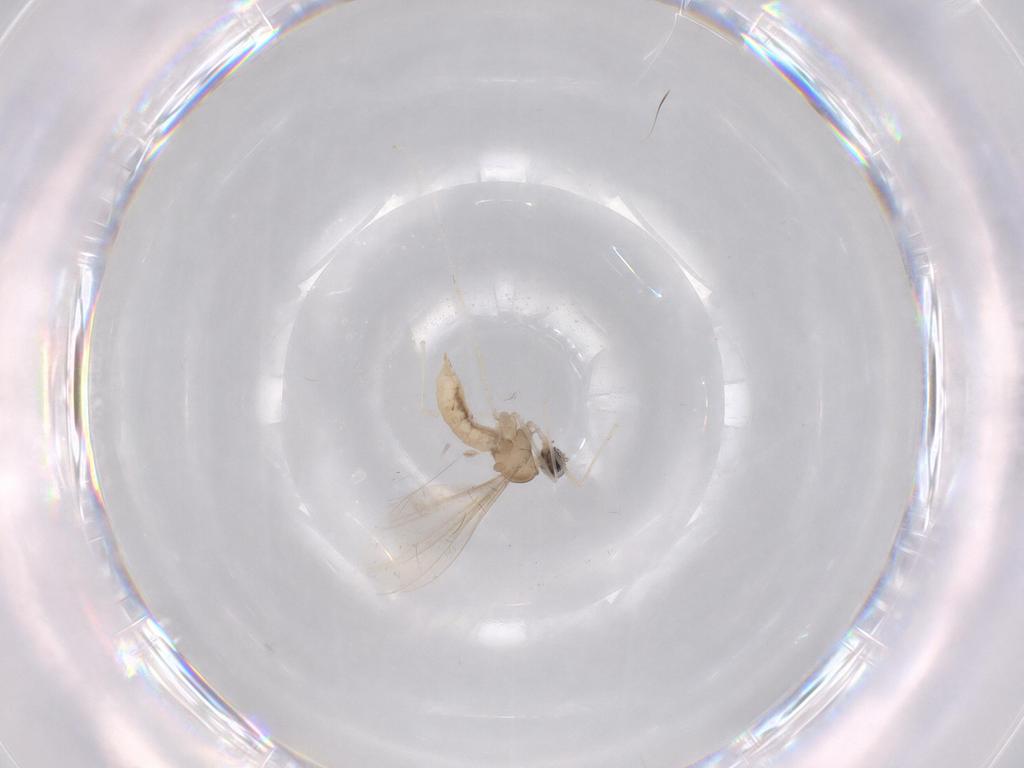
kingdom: Animalia
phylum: Arthropoda
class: Insecta
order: Diptera
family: Cecidomyiidae
